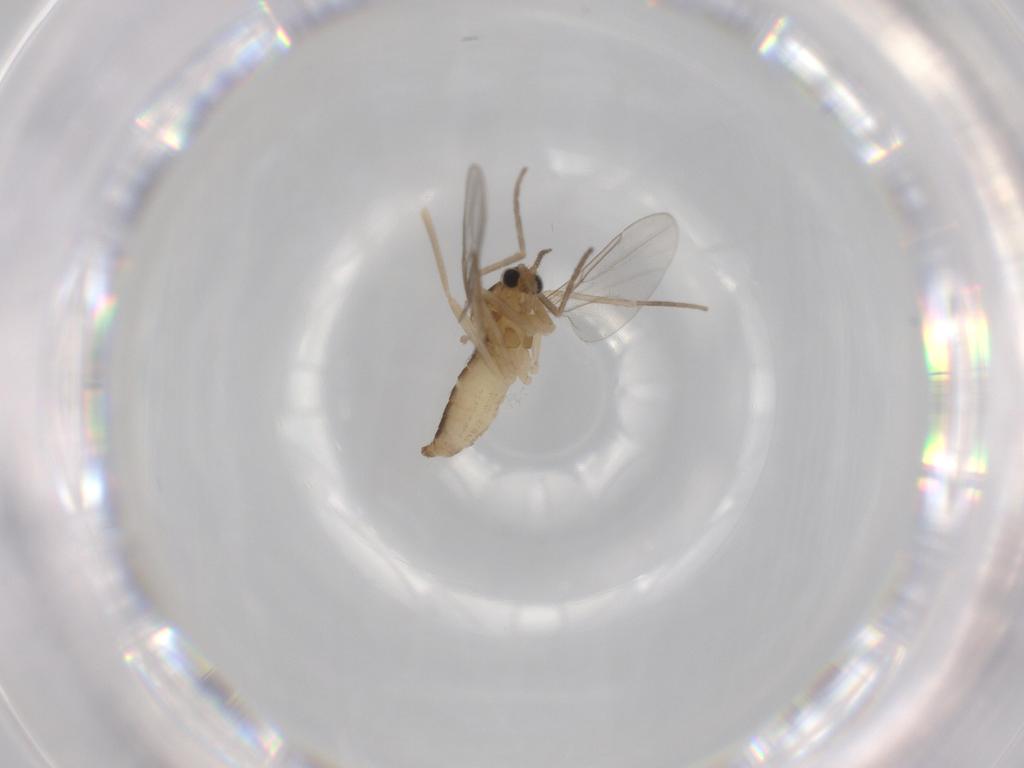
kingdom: Animalia
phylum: Arthropoda
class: Insecta
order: Diptera
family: Cecidomyiidae
